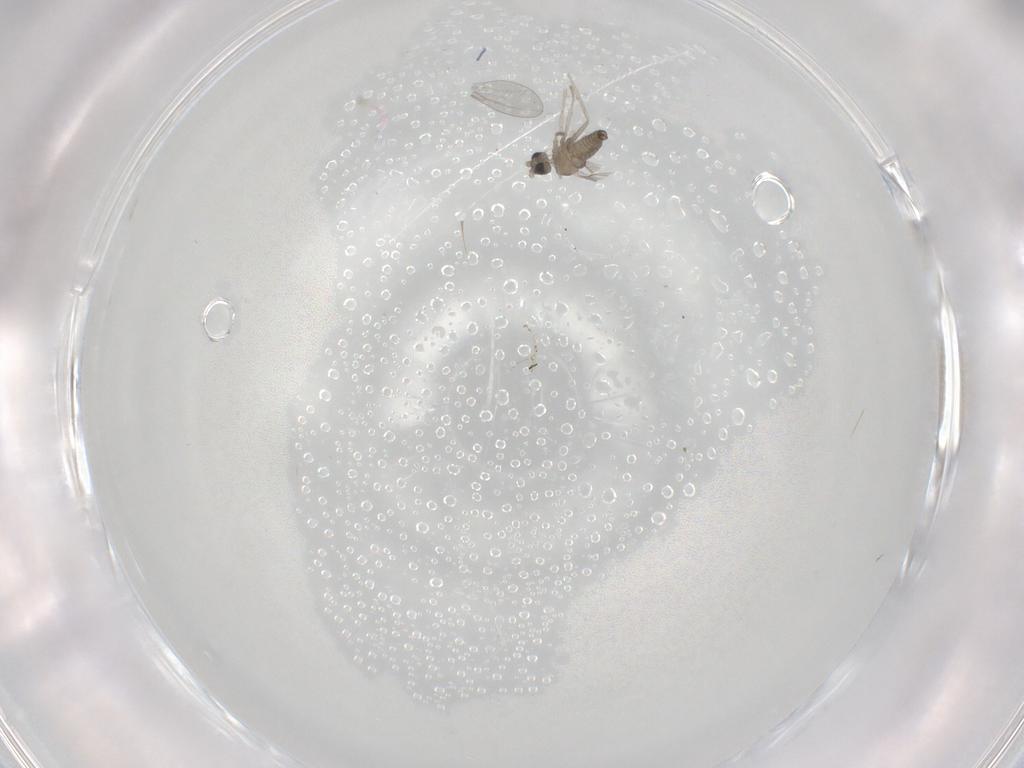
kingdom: Animalia
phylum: Arthropoda
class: Insecta
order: Diptera
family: Cecidomyiidae
